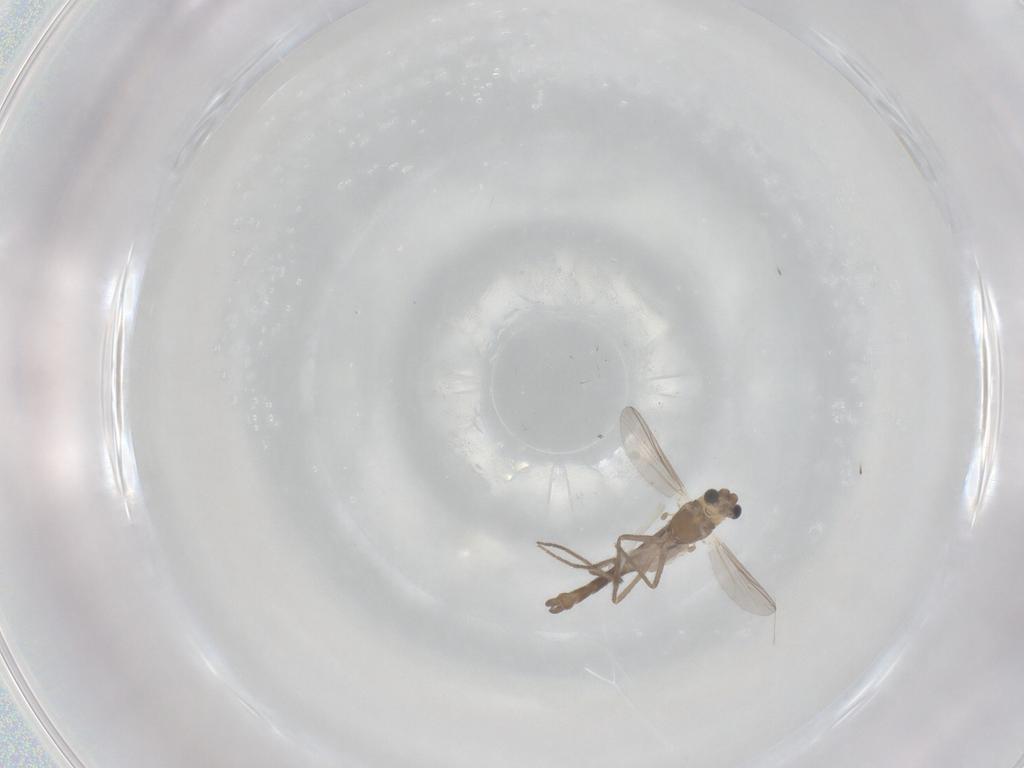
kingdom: Animalia
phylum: Arthropoda
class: Insecta
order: Diptera
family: Chironomidae
